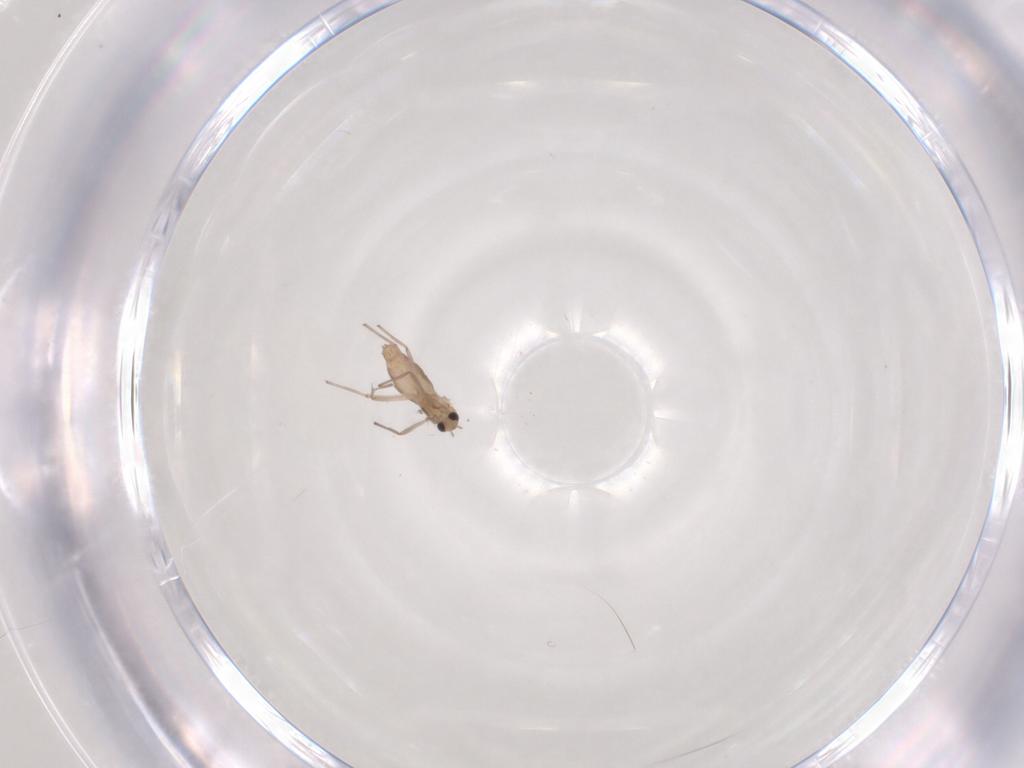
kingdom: Animalia
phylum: Arthropoda
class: Insecta
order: Diptera
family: Chironomidae
